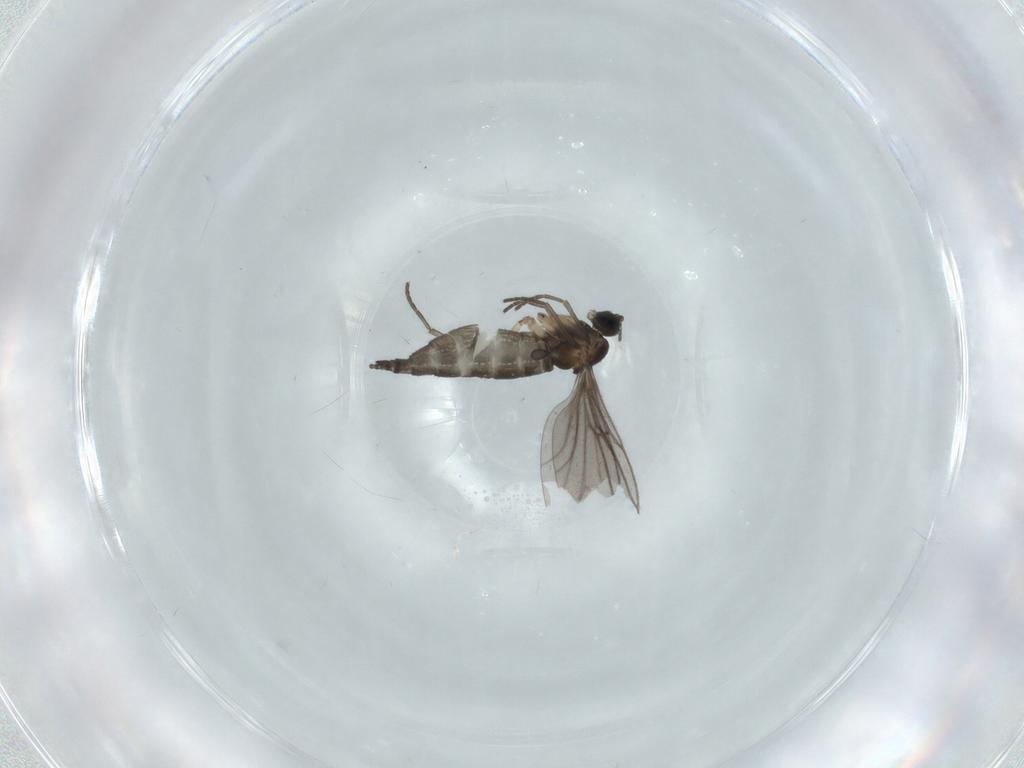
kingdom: Animalia
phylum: Arthropoda
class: Insecta
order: Diptera
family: Sciaridae
